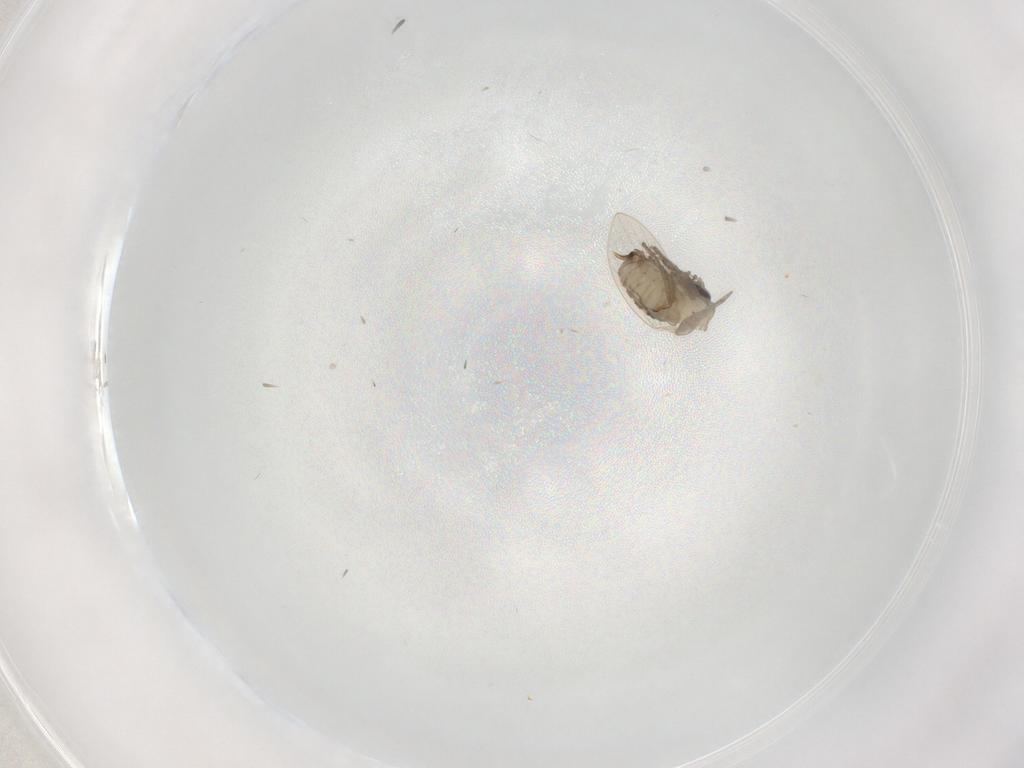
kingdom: Animalia
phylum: Arthropoda
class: Insecta
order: Diptera
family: Psychodidae
